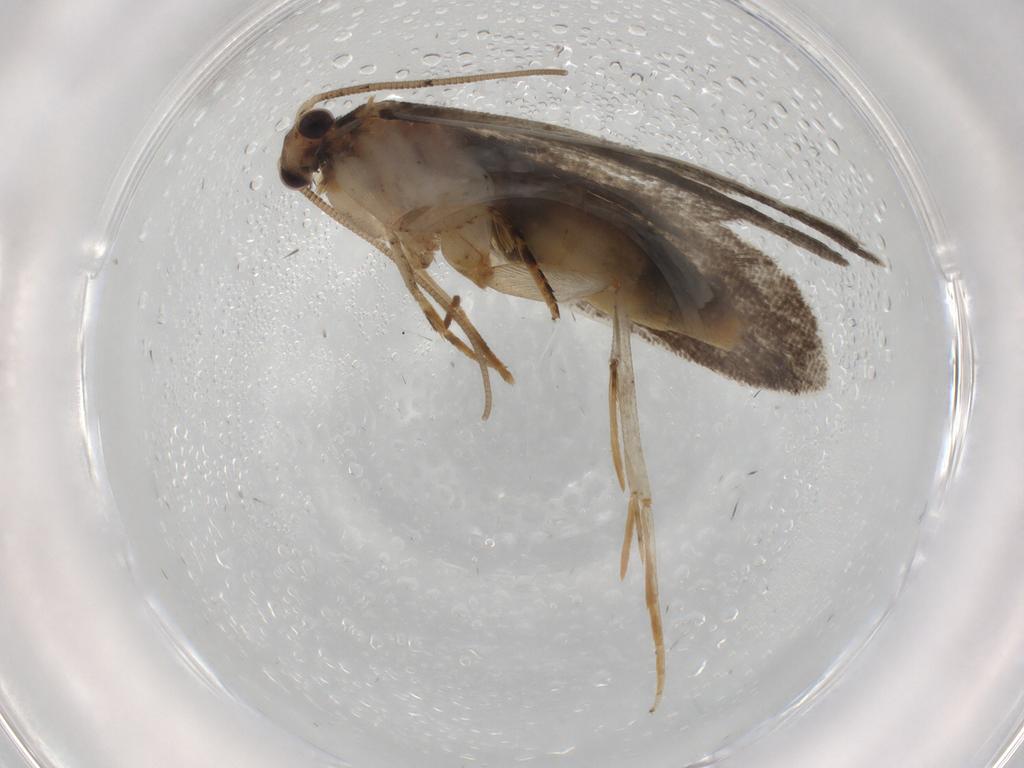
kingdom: Animalia
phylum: Arthropoda
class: Insecta
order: Lepidoptera
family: Tineidae
